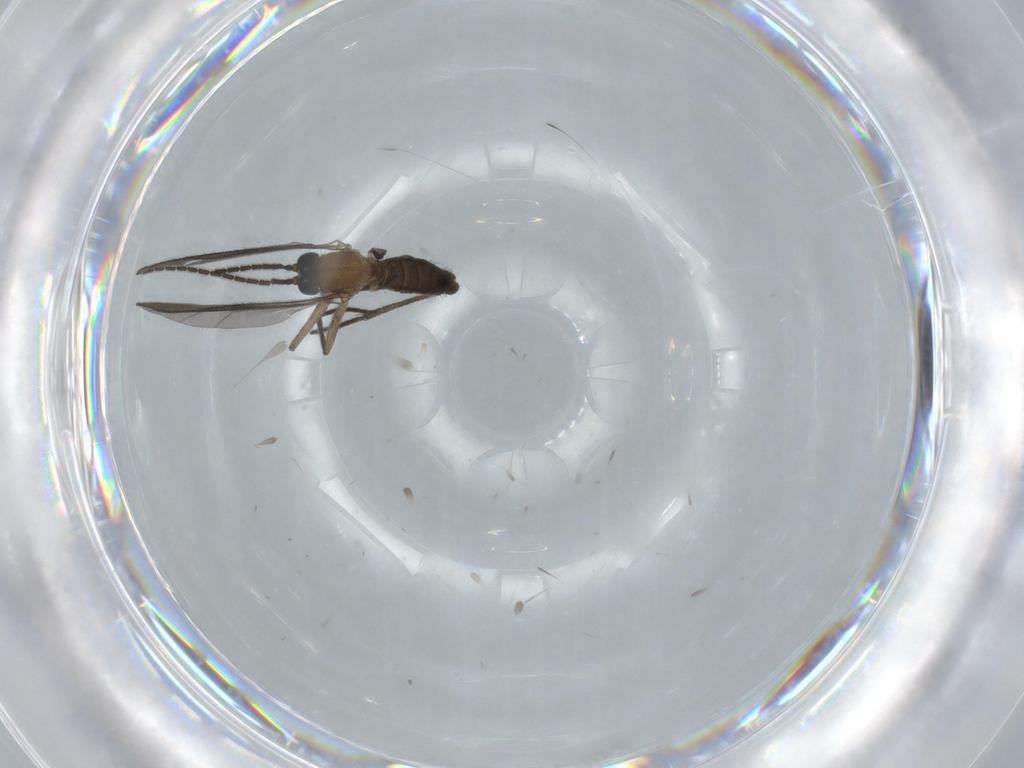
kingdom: Animalia
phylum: Arthropoda
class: Insecta
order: Diptera
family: Sciaridae
